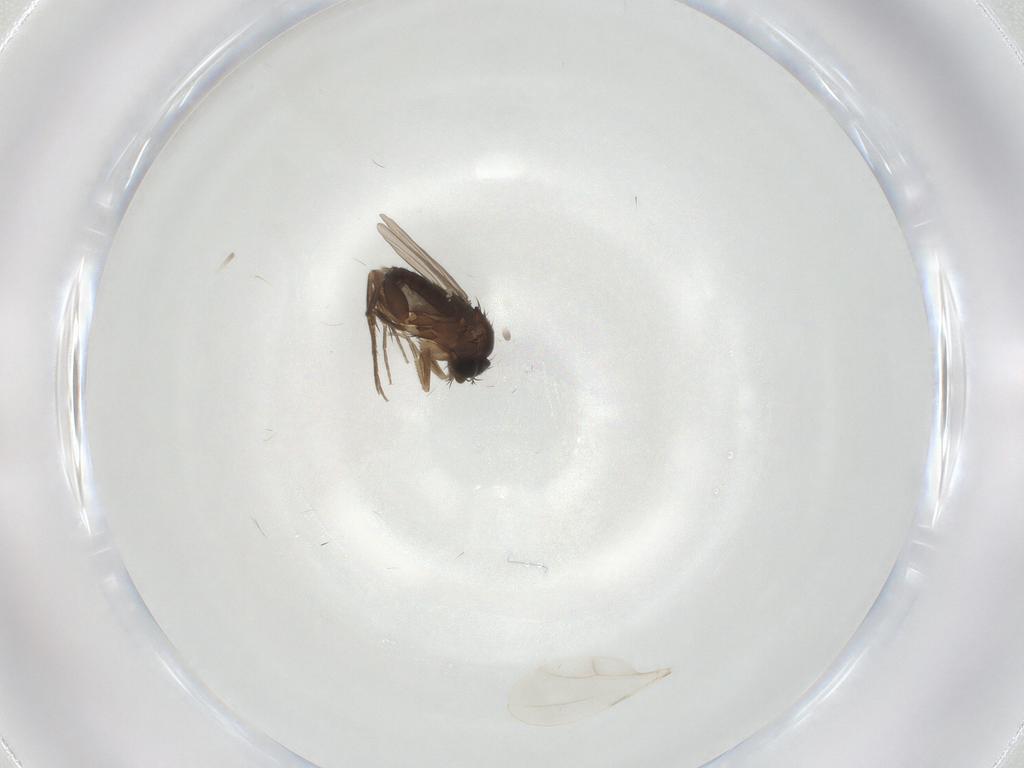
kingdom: Animalia
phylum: Arthropoda
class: Insecta
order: Diptera
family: Phoridae
